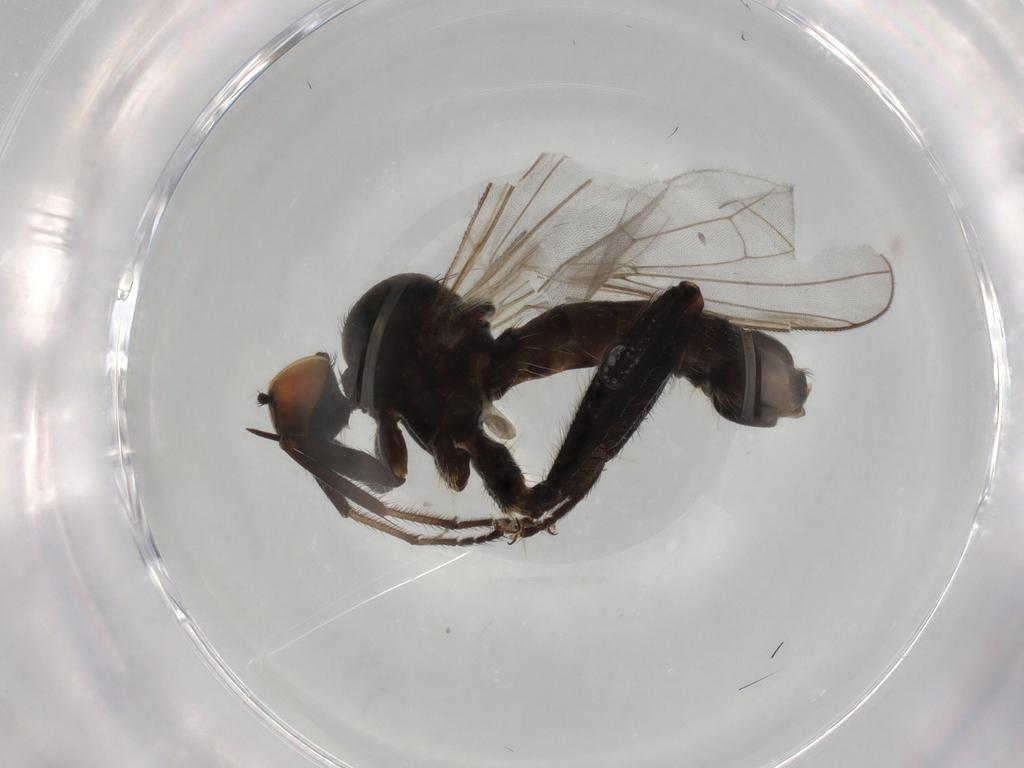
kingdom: Animalia
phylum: Arthropoda
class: Insecta
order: Diptera
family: Hybotidae
